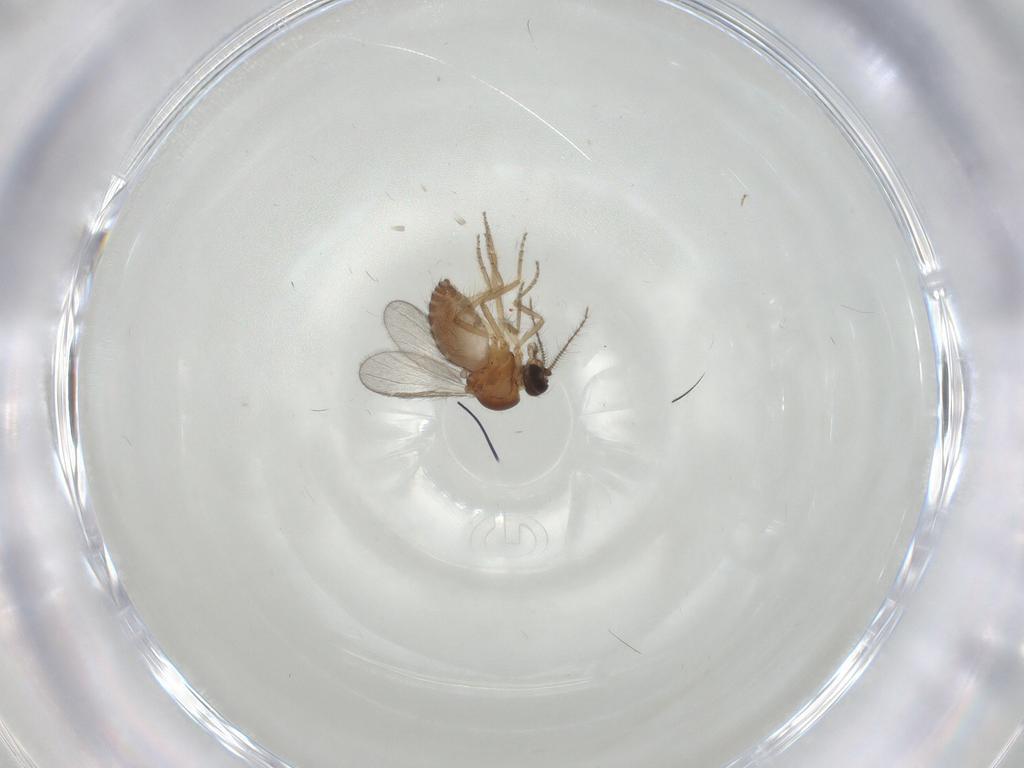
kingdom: Animalia
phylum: Arthropoda
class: Insecta
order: Diptera
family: Ceratopogonidae
